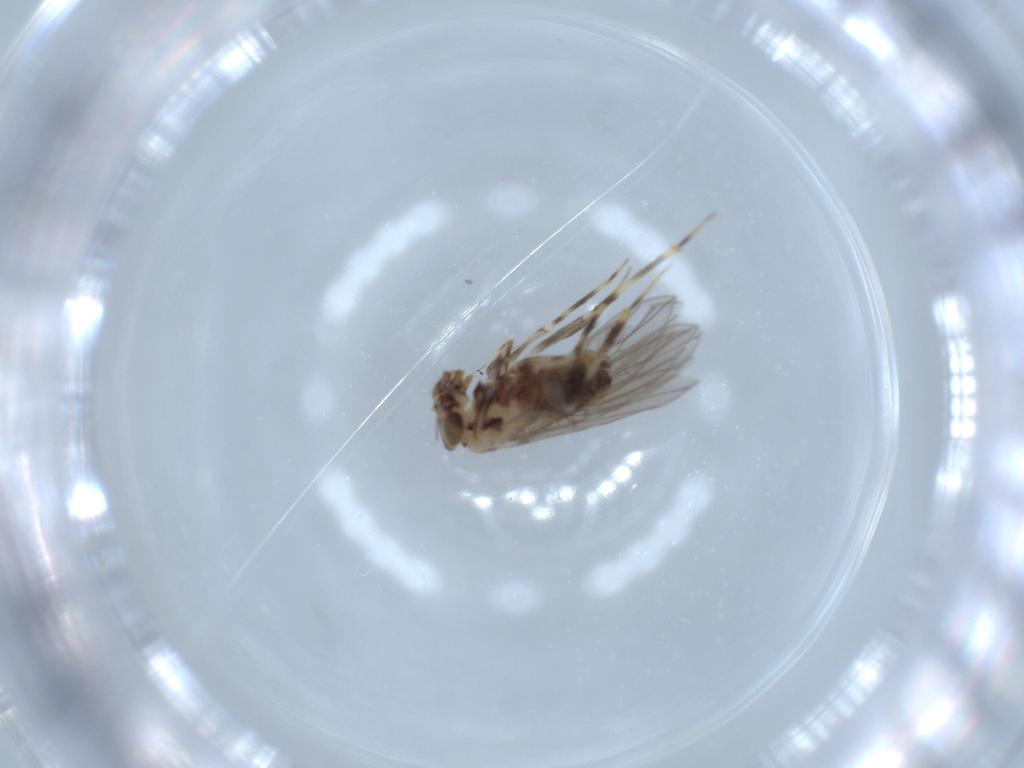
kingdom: Animalia
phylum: Arthropoda
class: Insecta
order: Psocodea
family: Lepidopsocidae
